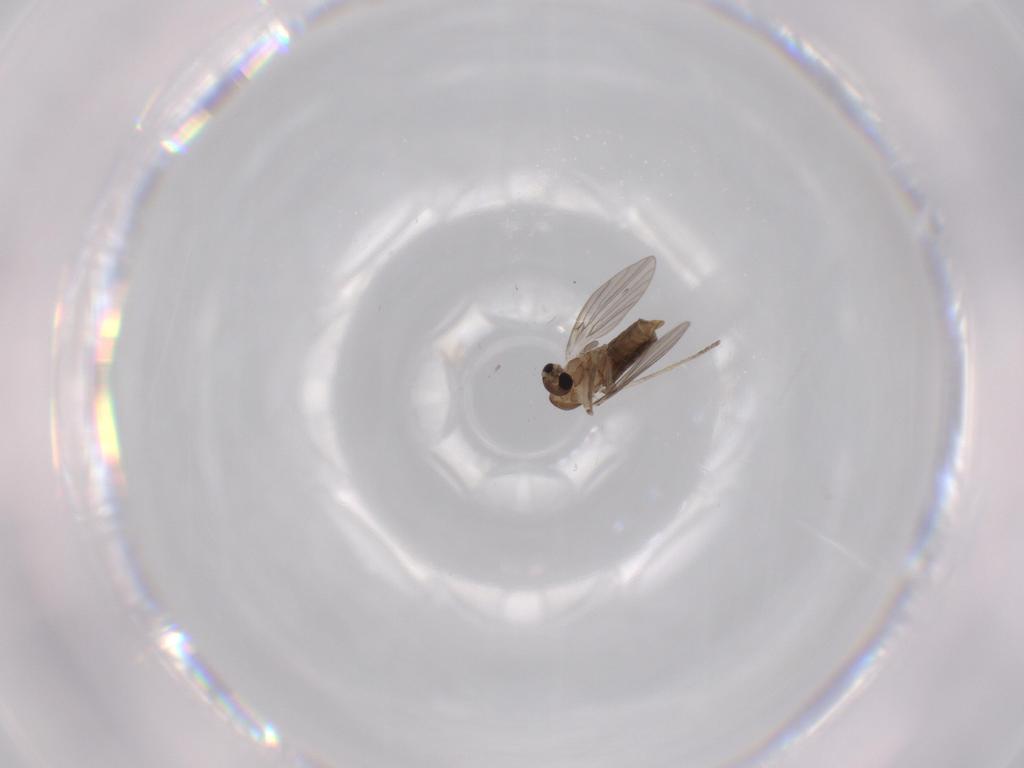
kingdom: Animalia
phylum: Arthropoda
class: Insecta
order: Diptera
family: Bibionidae
